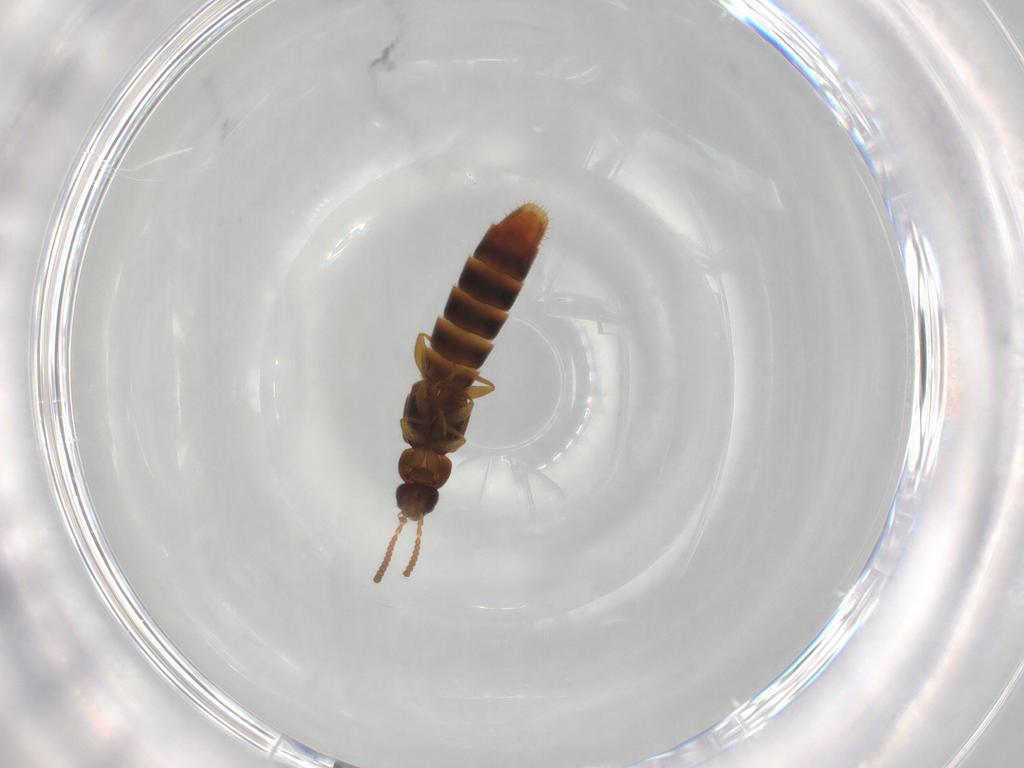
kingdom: Animalia
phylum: Arthropoda
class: Insecta
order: Coleoptera
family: Staphylinidae
